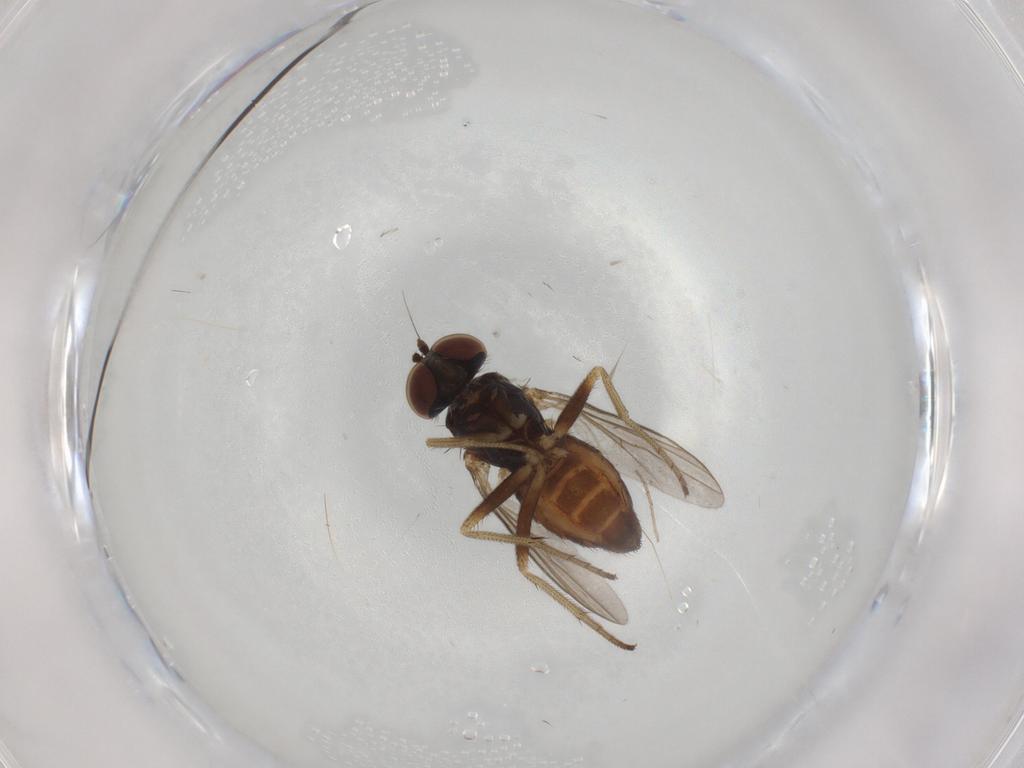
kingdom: Animalia
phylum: Arthropoda
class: Insecta
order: Diptera
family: Dolichopodidae
